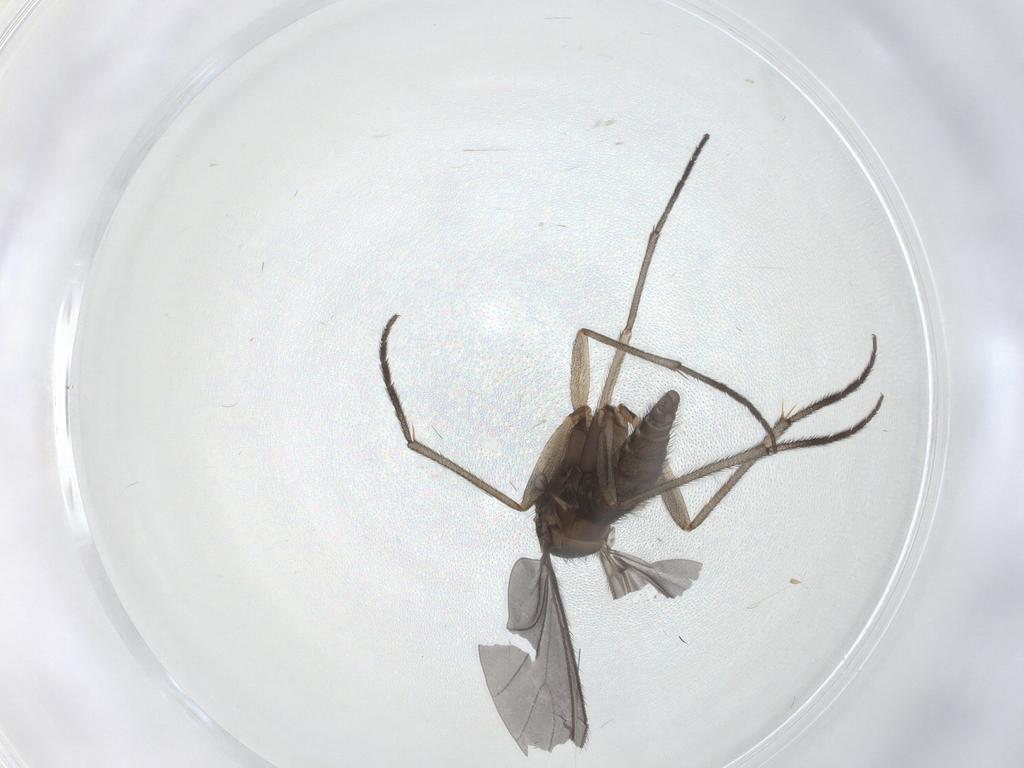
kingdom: Animalia
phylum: Arthropoda
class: Insecta
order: Diptera
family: Sciaridae
